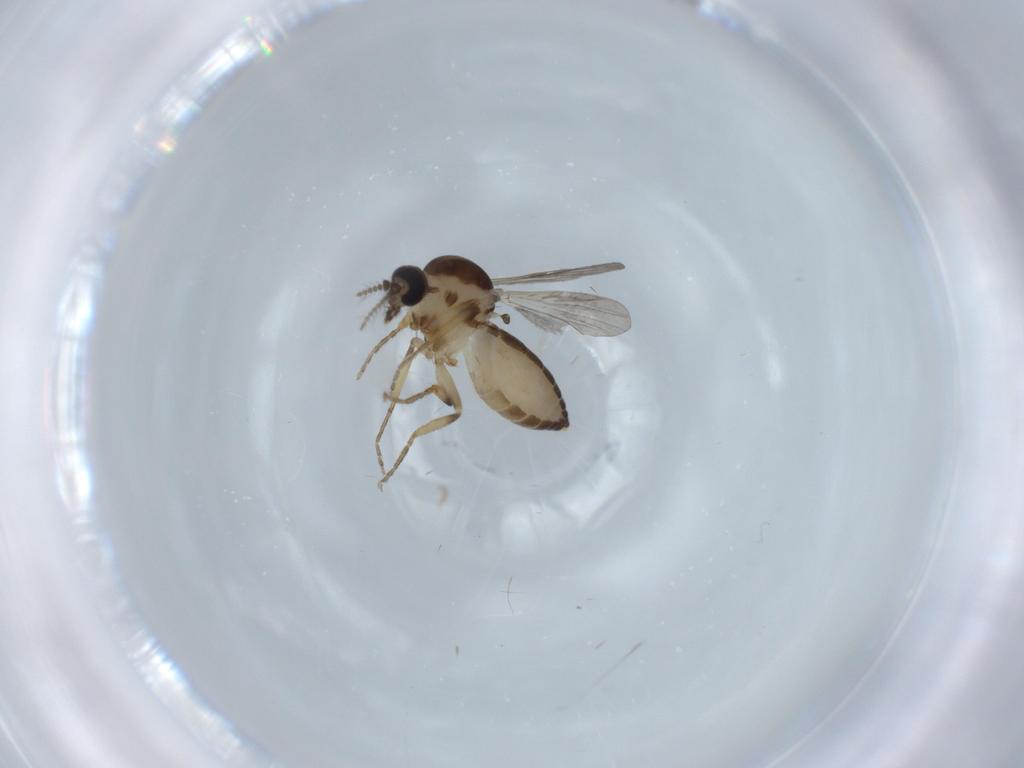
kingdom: Animalia
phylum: Arthropoda
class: Insecta
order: Diptera
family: Ceratopogonidae
